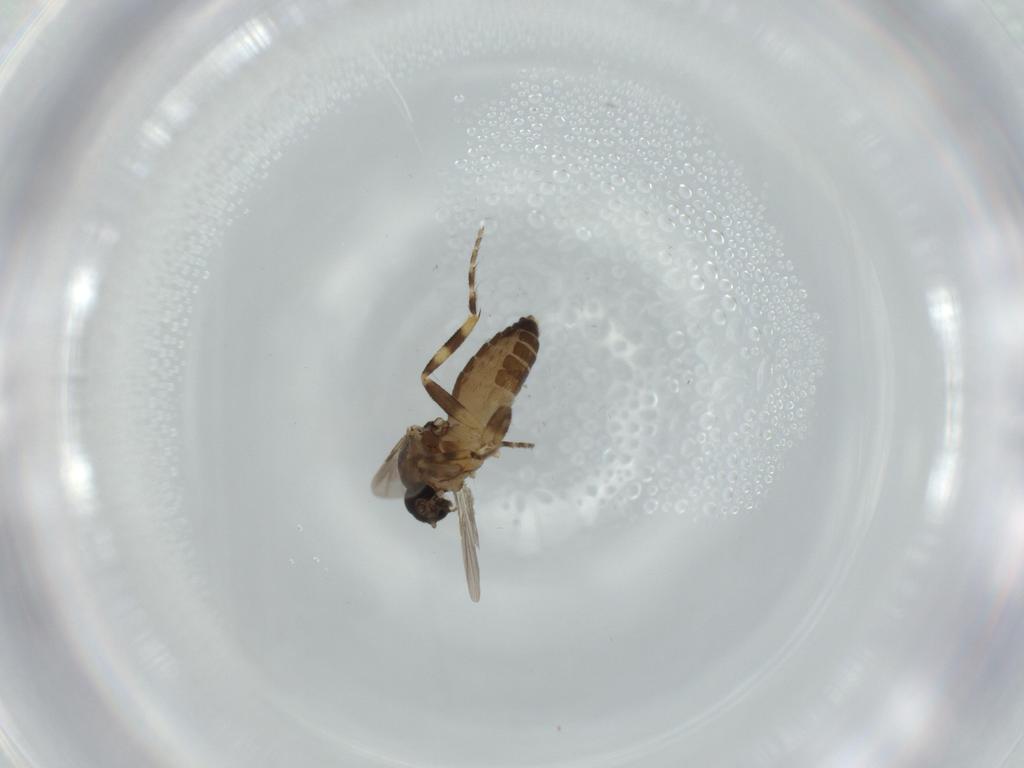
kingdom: Animalia
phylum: Arthropoda
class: Insecta
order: Diptera
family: Ceratopogonidae
